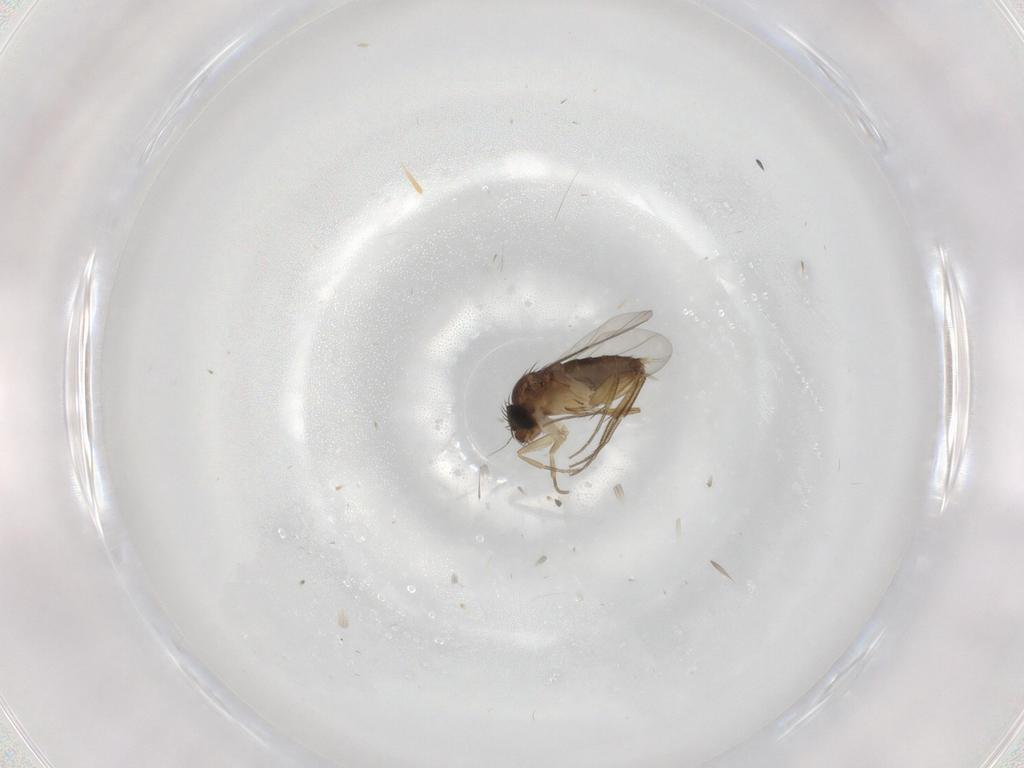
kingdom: Animalia
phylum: Arthropoda
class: Insecta
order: Diptera
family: Phoridae
